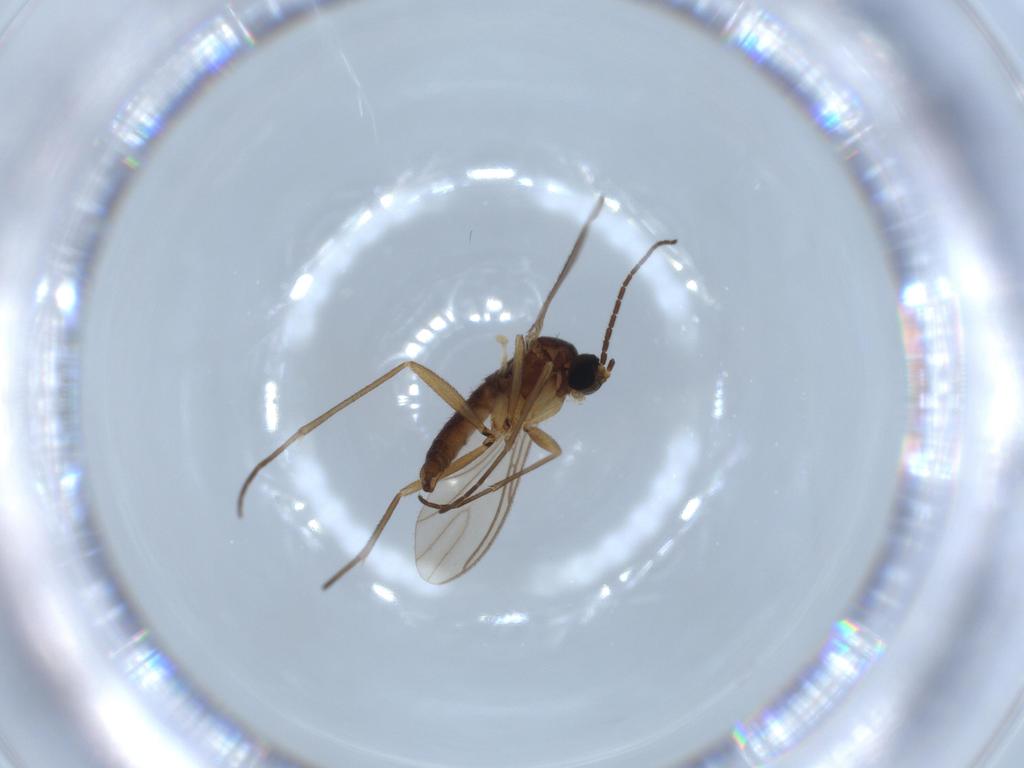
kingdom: Animalia
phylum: Arthropoda
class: Insecta
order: Diptera
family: Sciaridae
